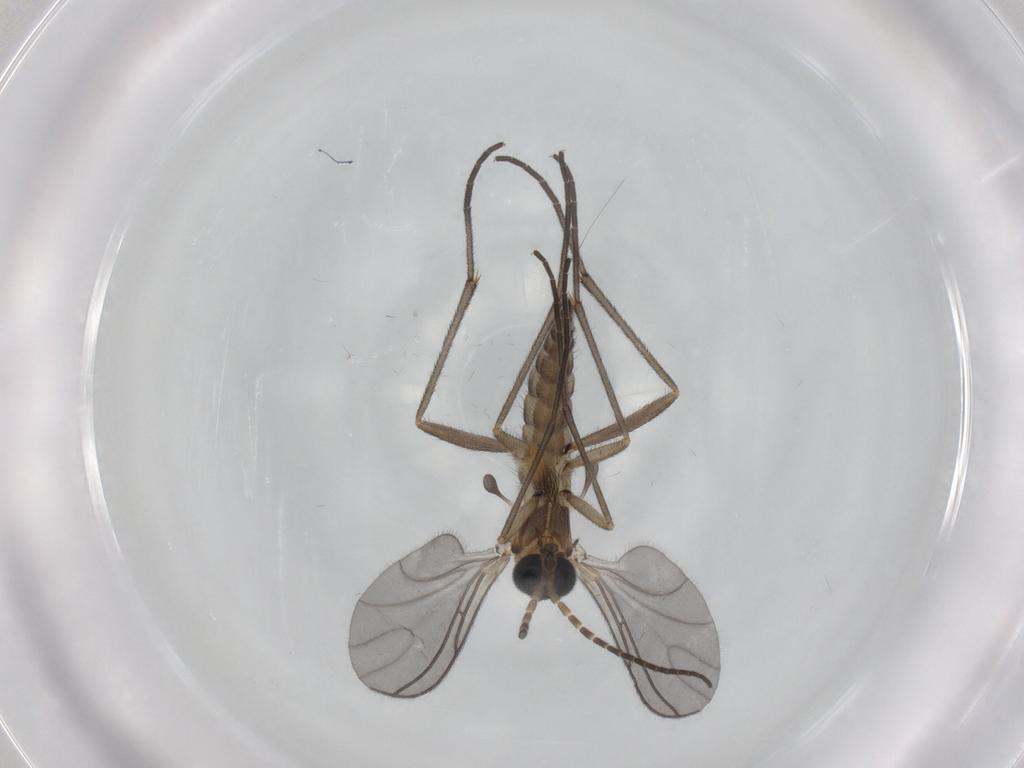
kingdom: Animalia
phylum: Arthropoda
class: Insecta
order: Diptera
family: Sciaridae
